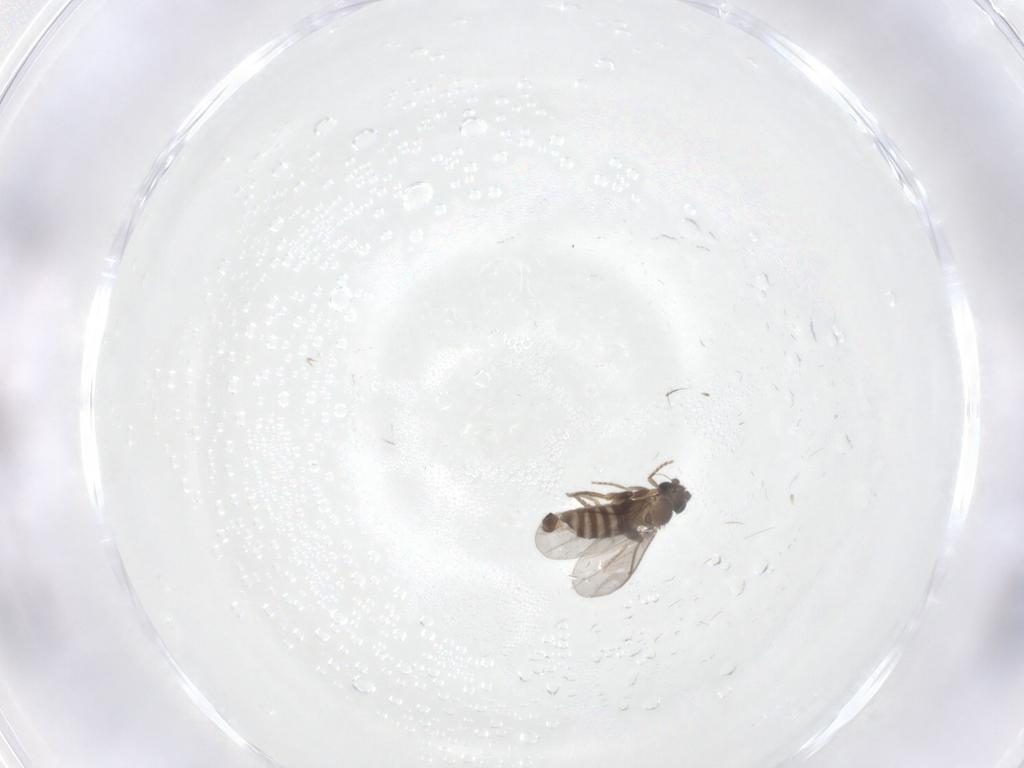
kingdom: Animalia
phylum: Arthropoda
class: Insecta
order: Diptera
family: Phoridae
